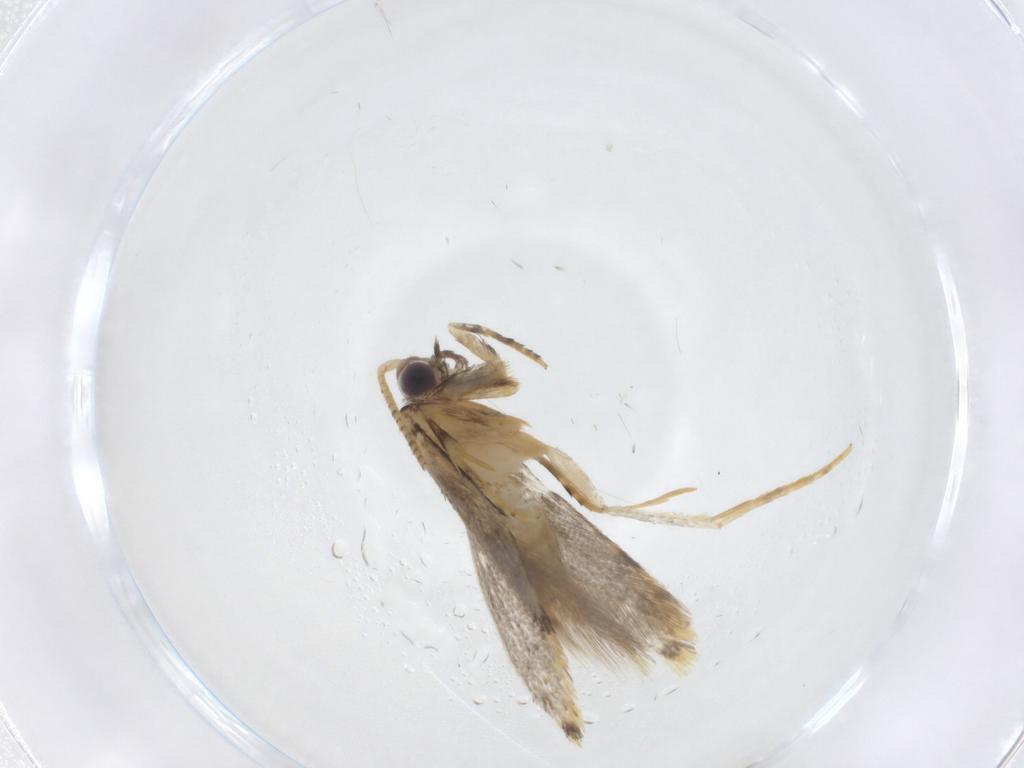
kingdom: Animalia
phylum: Arthropoda
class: Insecta
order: Lepidoptera
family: Tineidae
